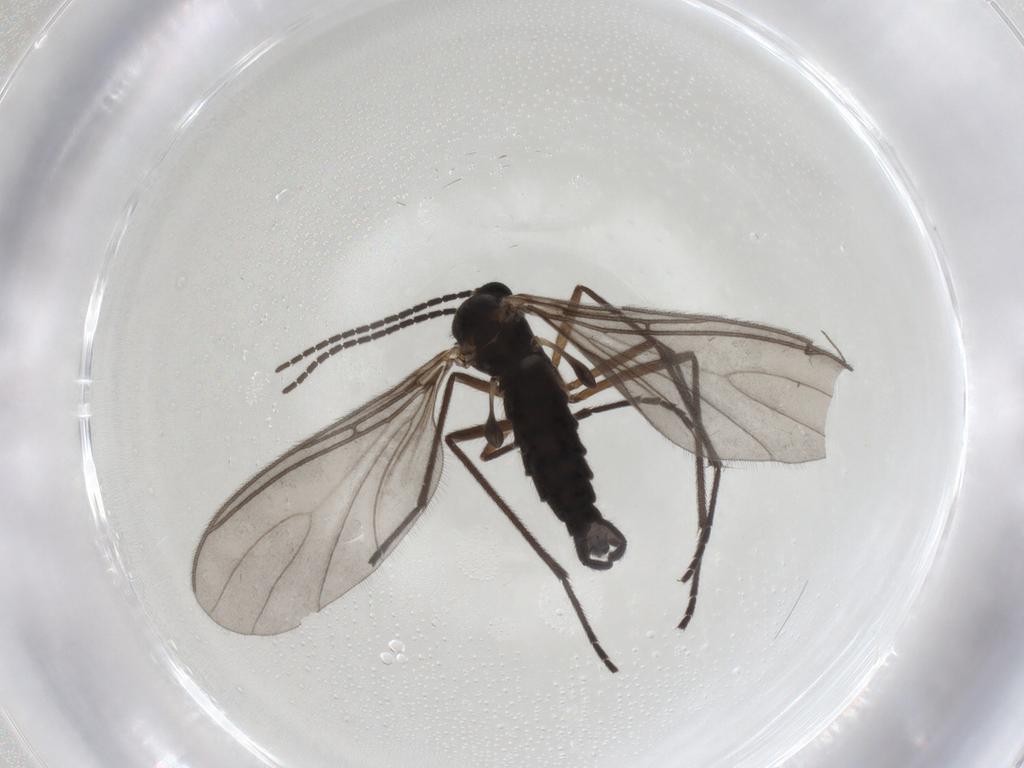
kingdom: Animalia
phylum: Arthropoda
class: Insecta
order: Diptera
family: Sciaridae
